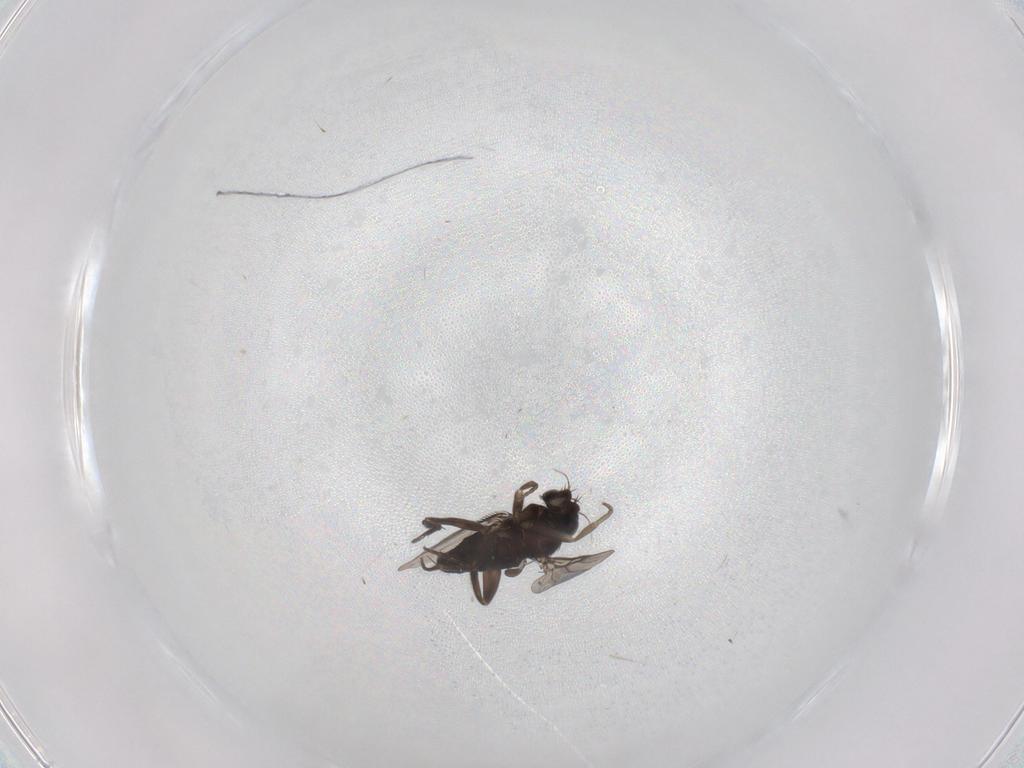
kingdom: Animalia
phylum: Arthropoda
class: Insecta
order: Diptera
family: Phoridae
